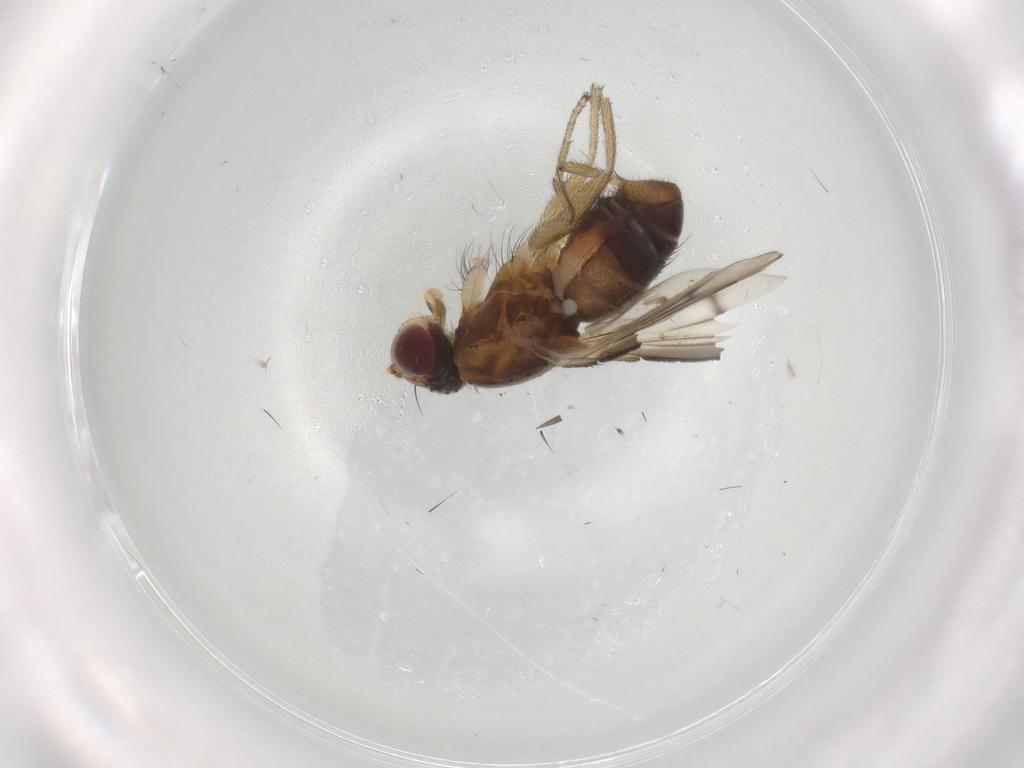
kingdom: Animalia
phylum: Arthropoda
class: Insecta
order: Diptera
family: Heleomyzidae
